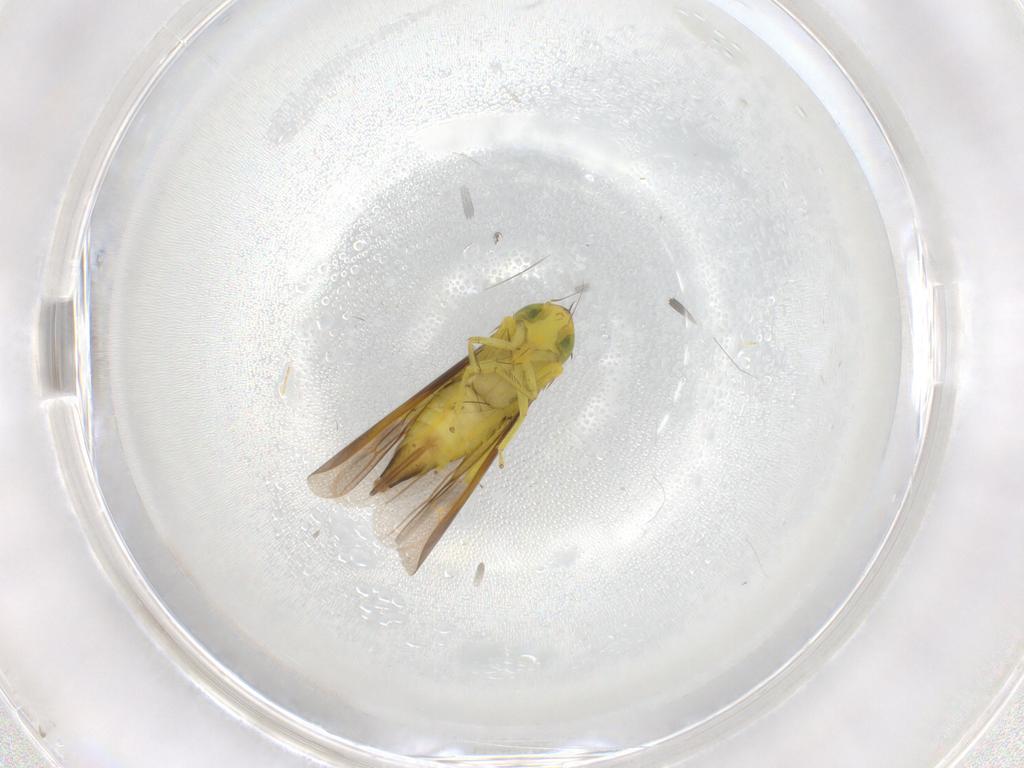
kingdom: Animalia
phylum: Arthropoda
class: Insecta
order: Hemiptera
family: Cicadellidae
